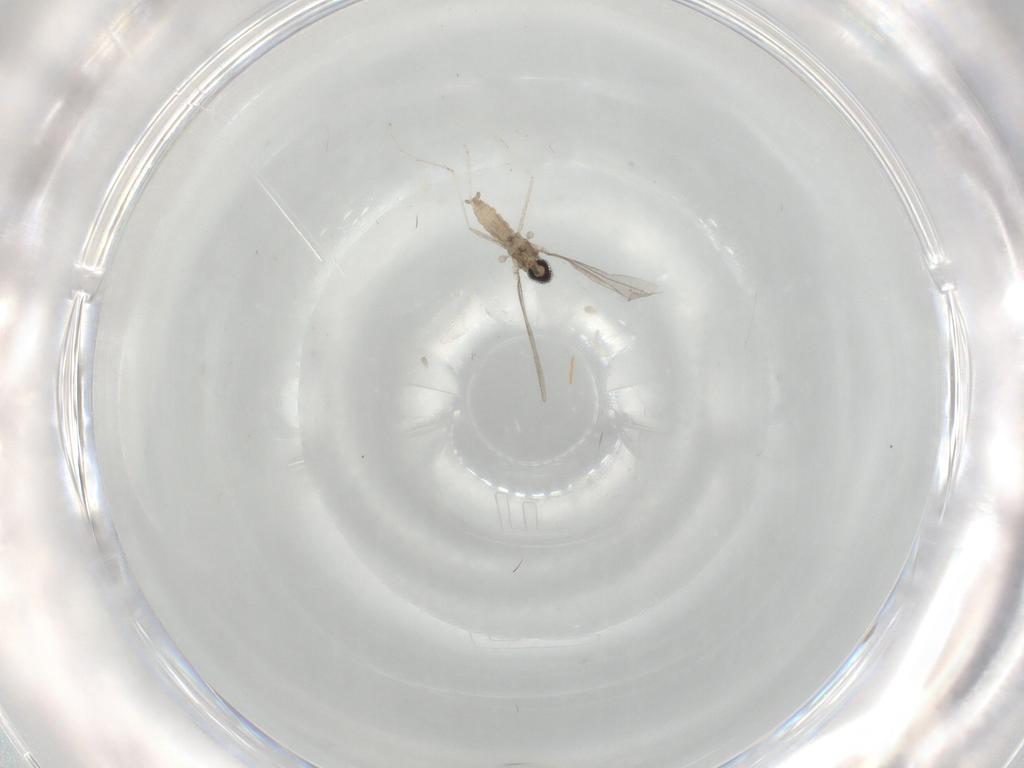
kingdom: Animalia
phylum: Arthropoda
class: Insecta
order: Diptera
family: Cecidomyiidae
